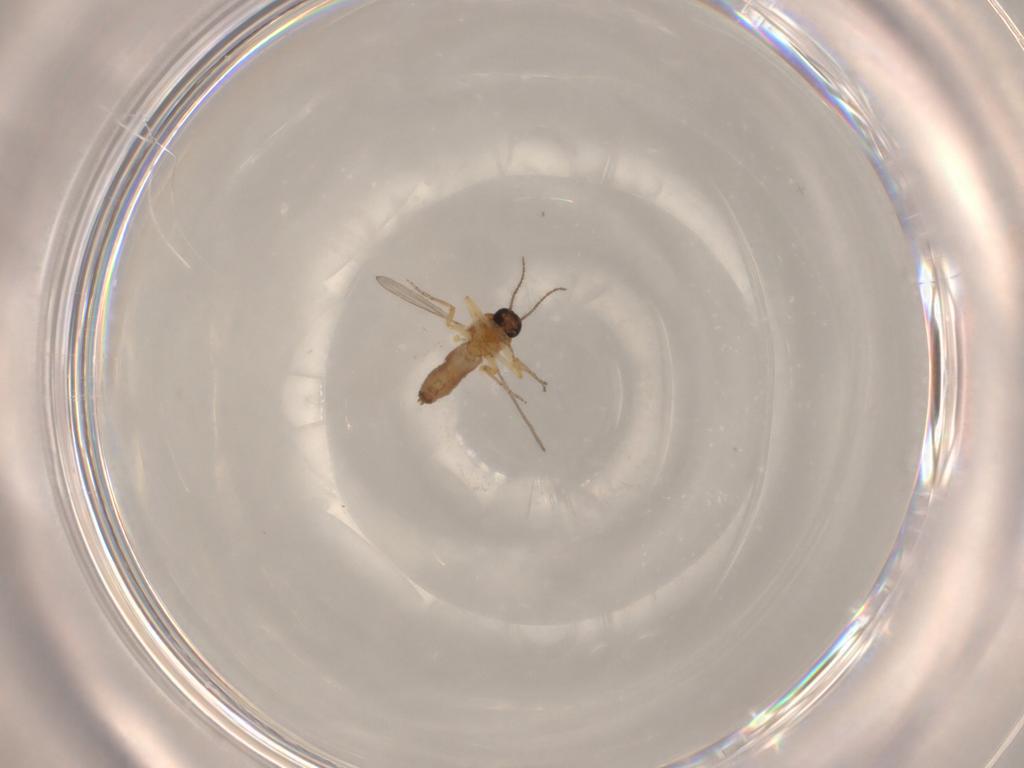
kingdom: Animalia
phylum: Arthropoda
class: Insecta
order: Diptera
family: Ceratopogonidae
